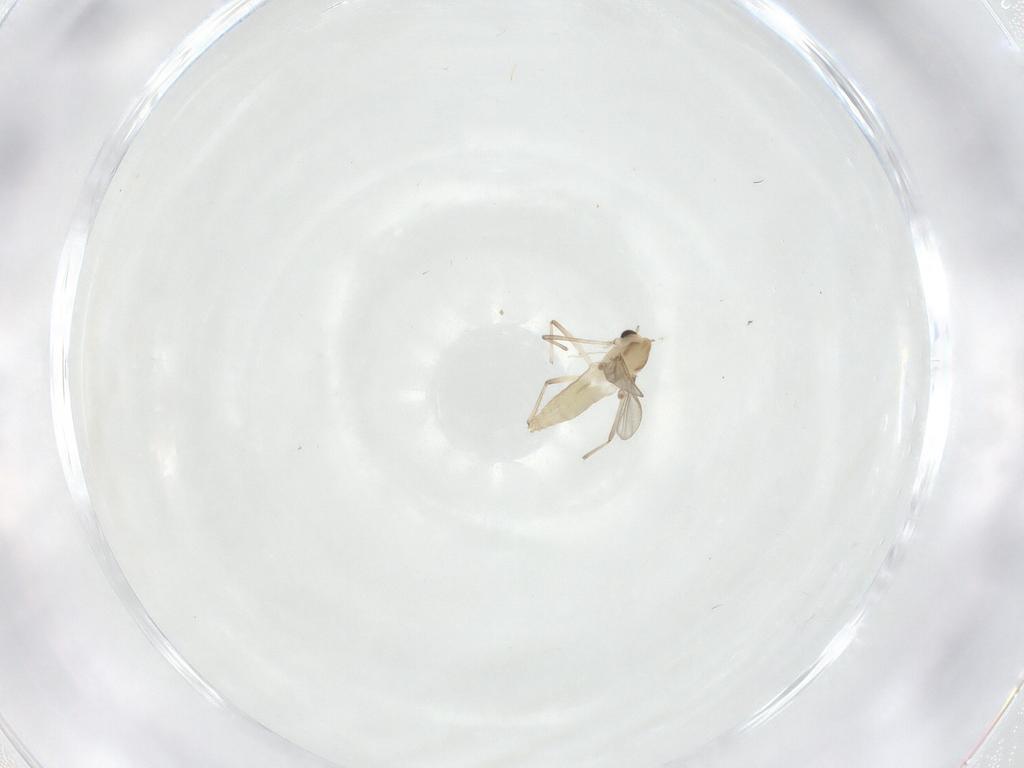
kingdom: Animalia
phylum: Arthropoda
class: Insecta
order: Diptera
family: Chironomidae
